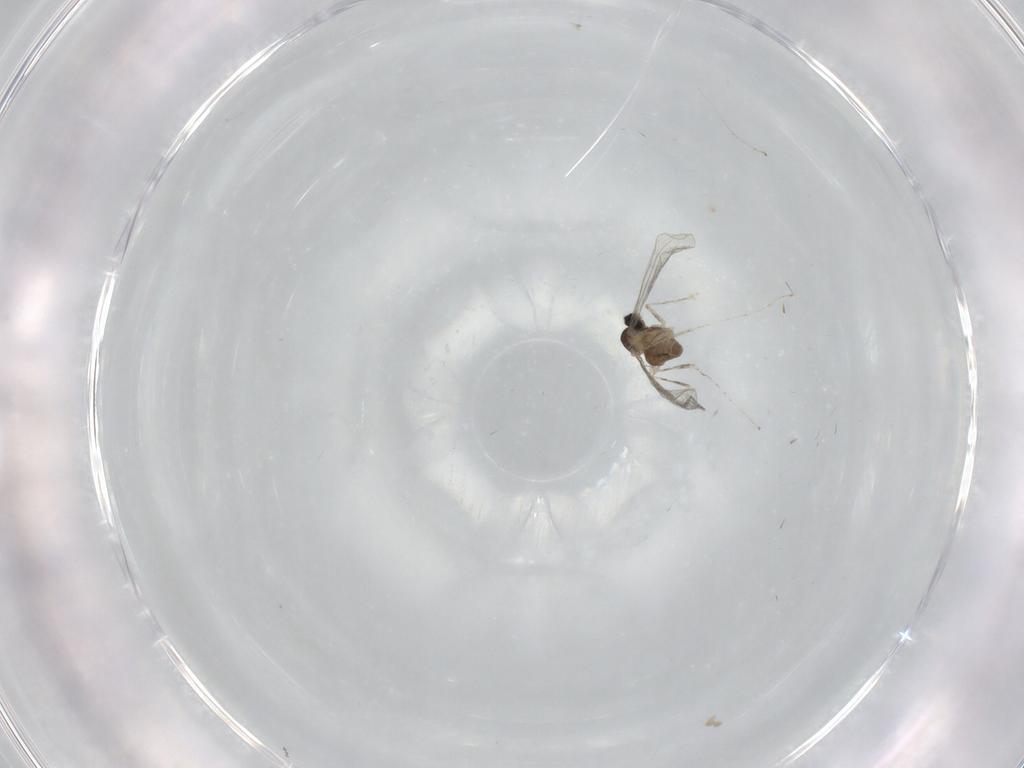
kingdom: Animalia
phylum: Arthropoda
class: Insecta
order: Diptera
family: Phoridae
